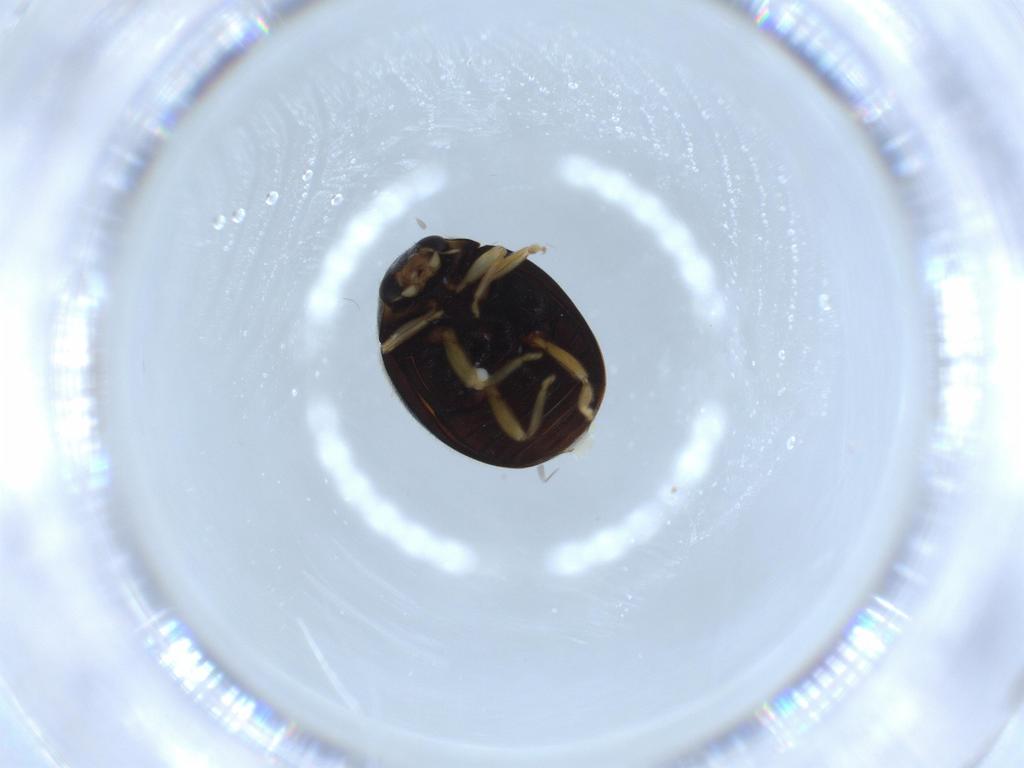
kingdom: Animalia
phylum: Arthropoda
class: Insecta
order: Coleoptera
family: Coccinellidae
